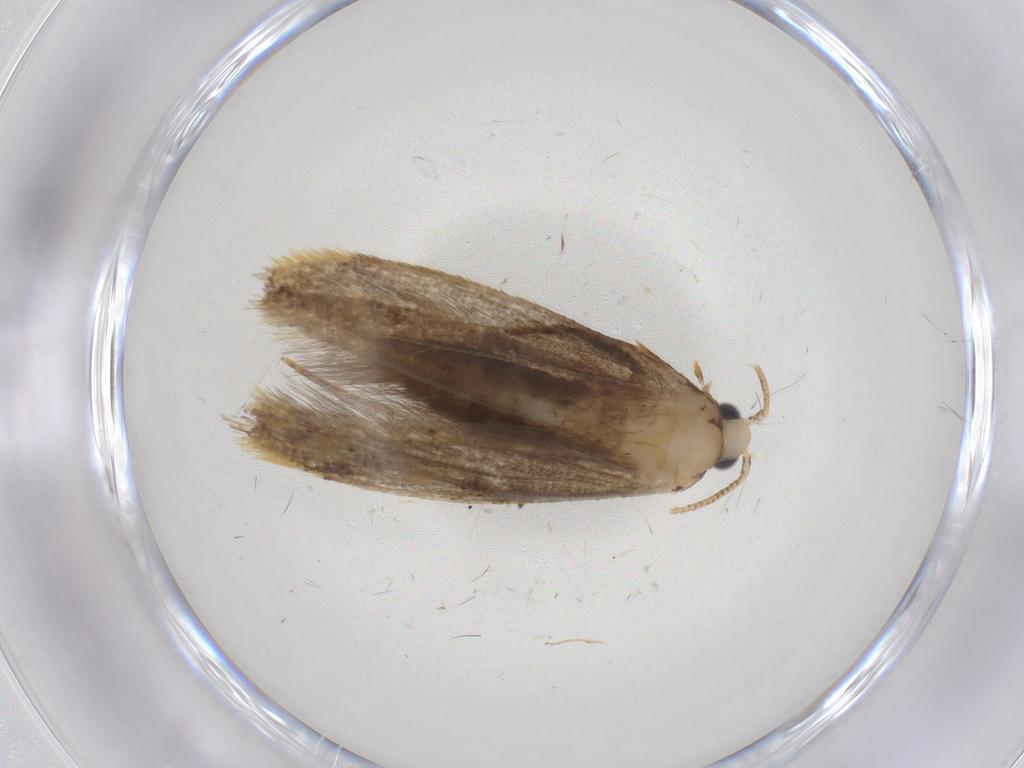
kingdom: Animalia
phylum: Arthropoda
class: Insecta
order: Lepidoptera
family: Tineidae
